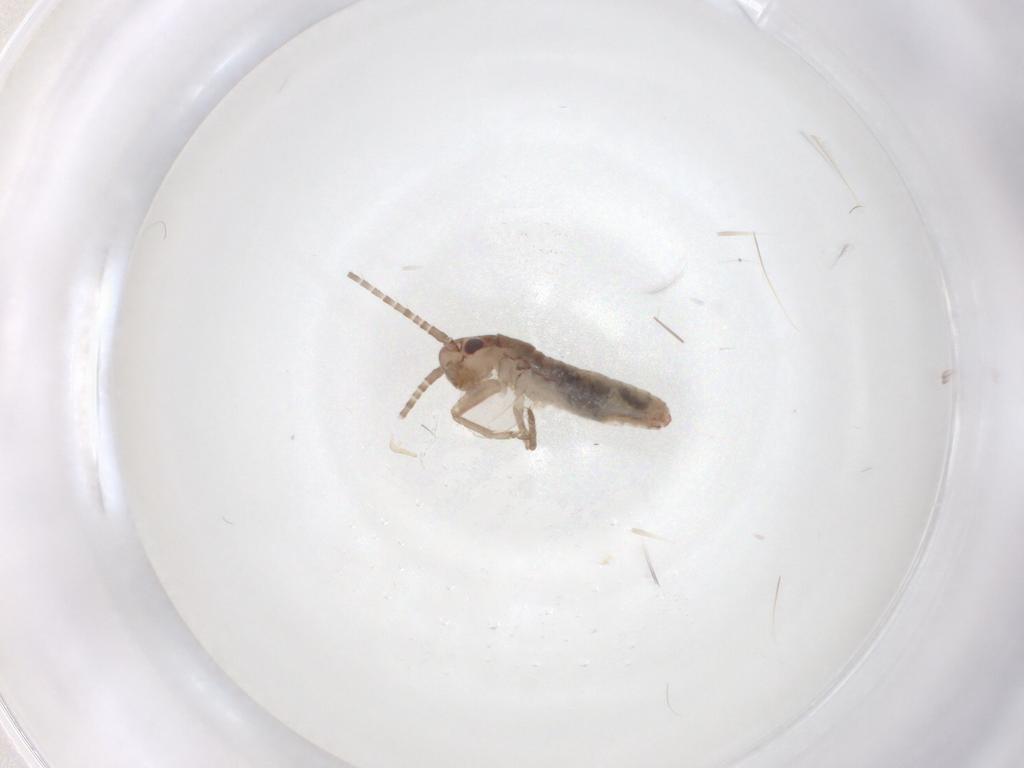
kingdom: Animalia
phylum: Arthropoda
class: Insecta
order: Orthoptera
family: Mogoplistidae
